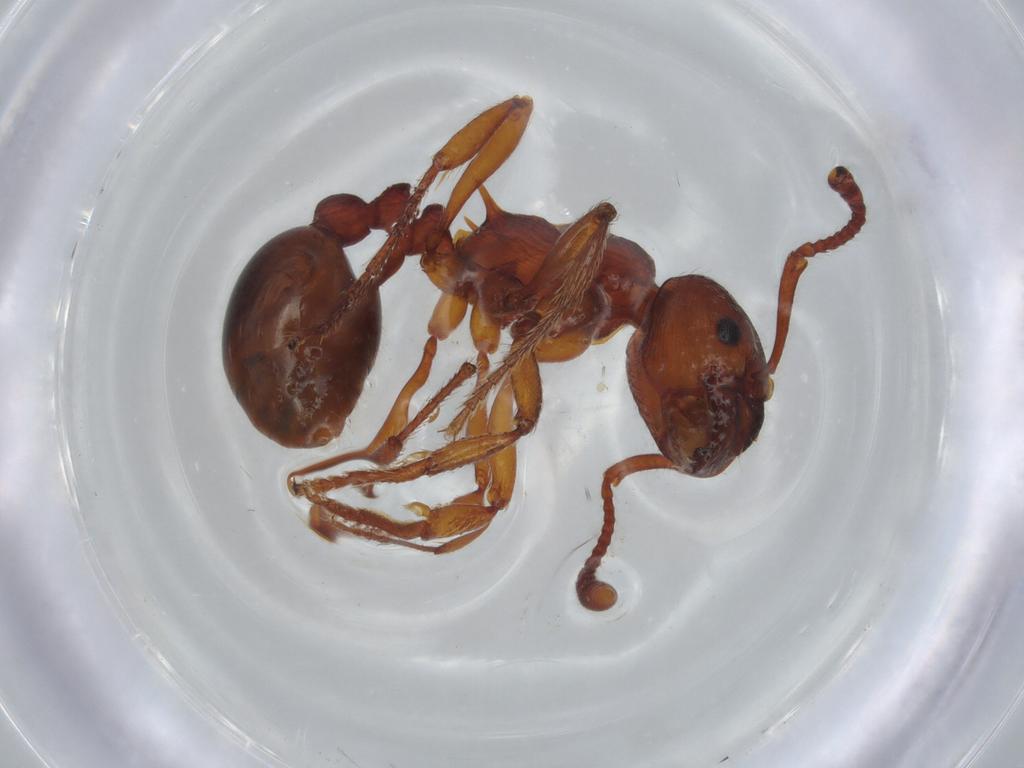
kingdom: Animalia
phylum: Arthropoda
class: Insecta
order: Hymenoptera
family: Formicidae
